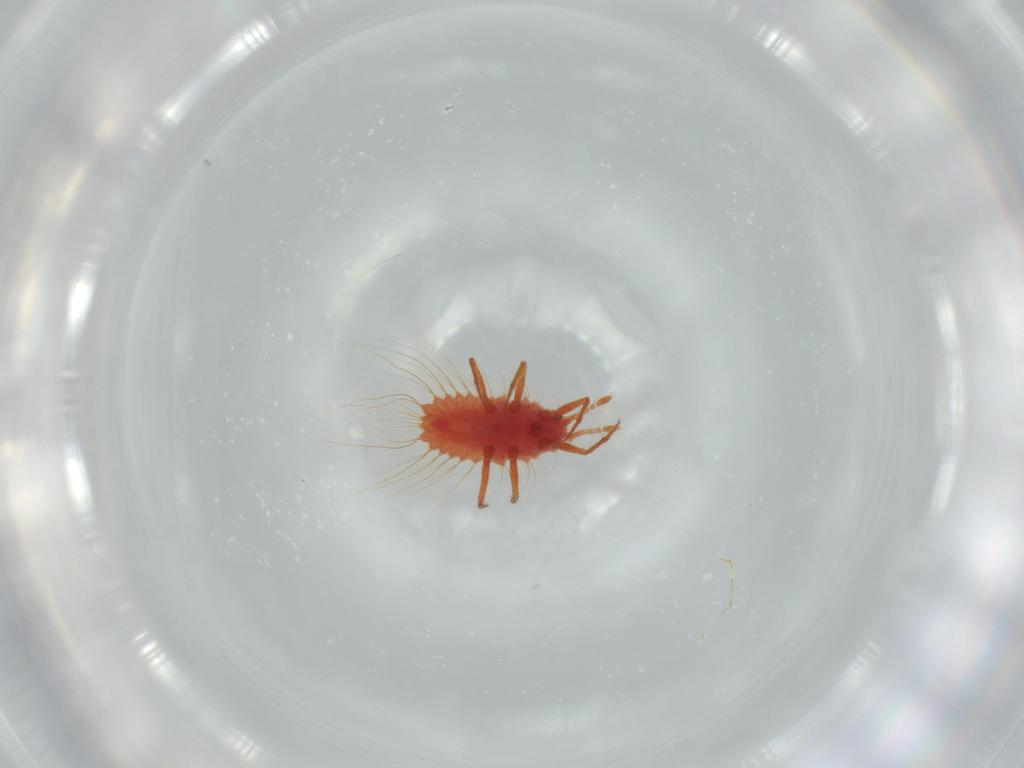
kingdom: Animalia
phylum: Arthropoda
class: Insecta
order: Hemiptera
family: Monophlebidae
